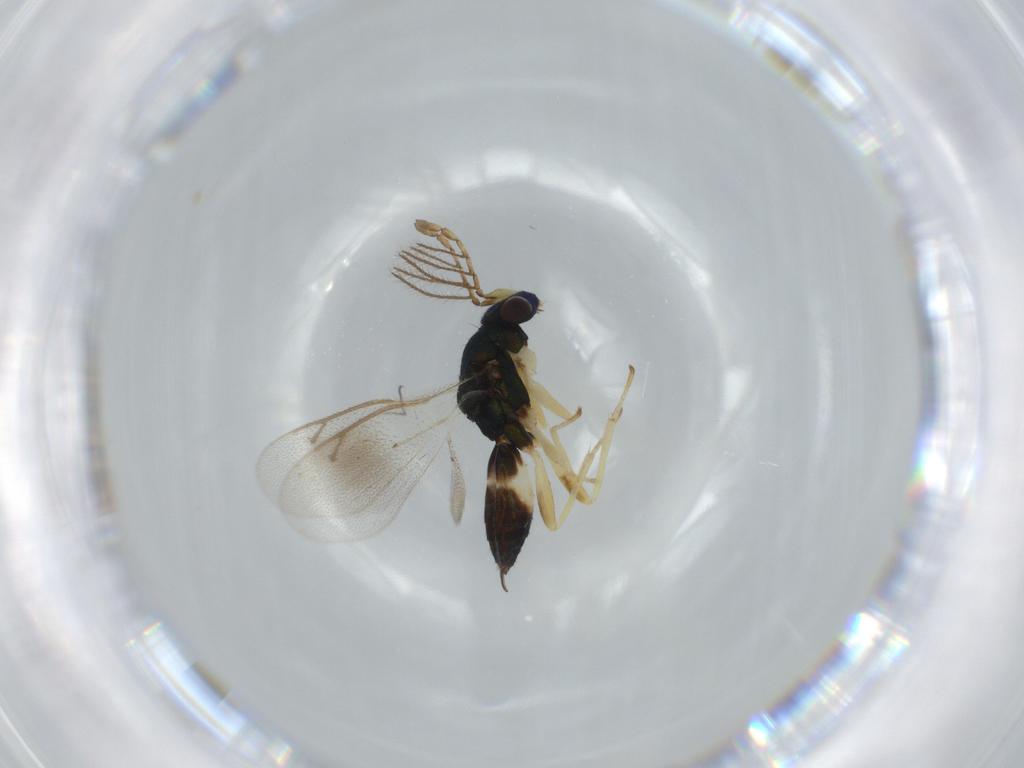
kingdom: Animalia
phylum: Arthropoda
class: Insecta
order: Hymenoptera
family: Eulophidae
